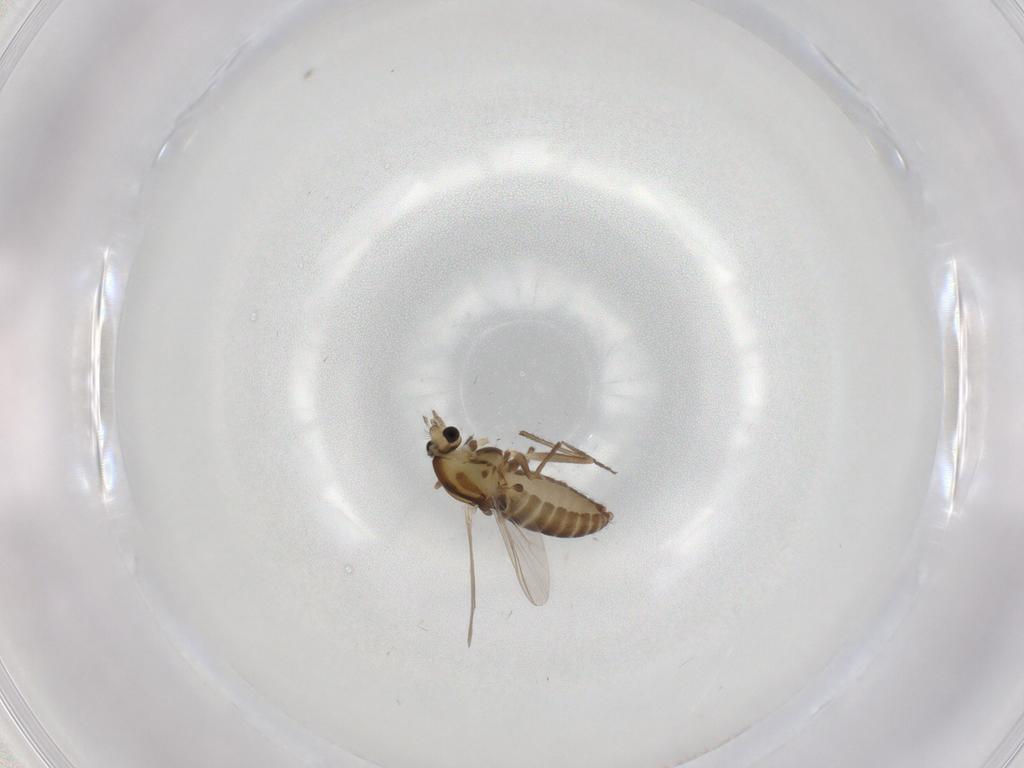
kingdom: Animalia
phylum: Arthropoda
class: Insecta
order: Diptera
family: Chironomidae
